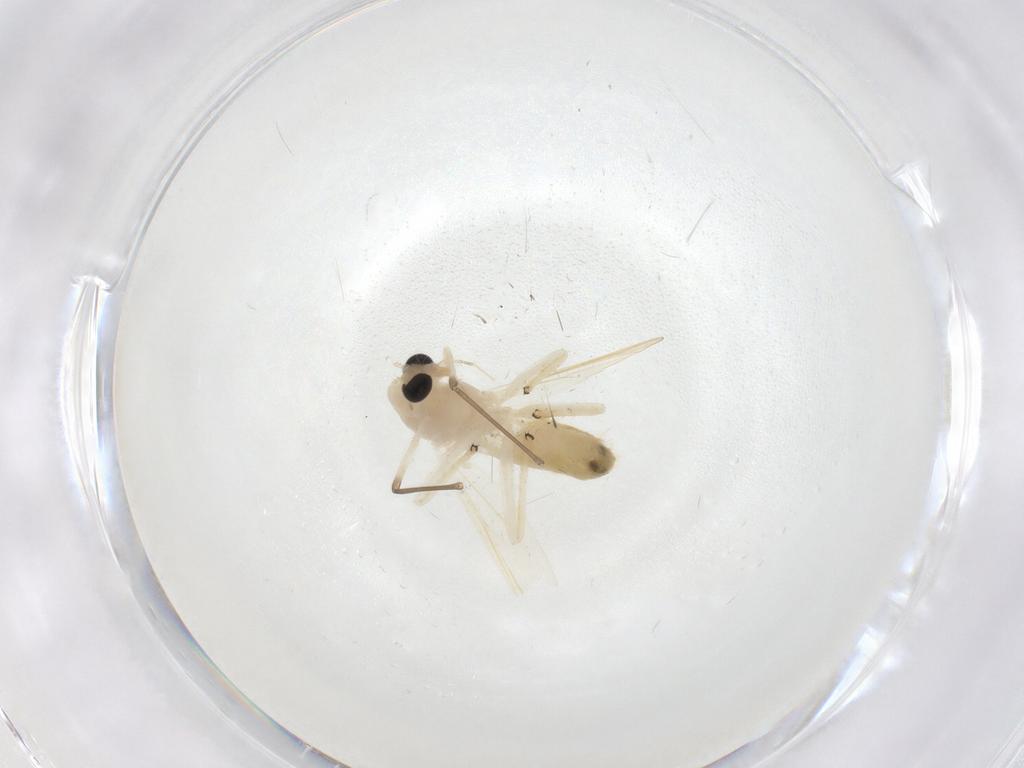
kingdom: Animalia
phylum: Arthropoda
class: Insecta
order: Diptera
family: Chironomidae
